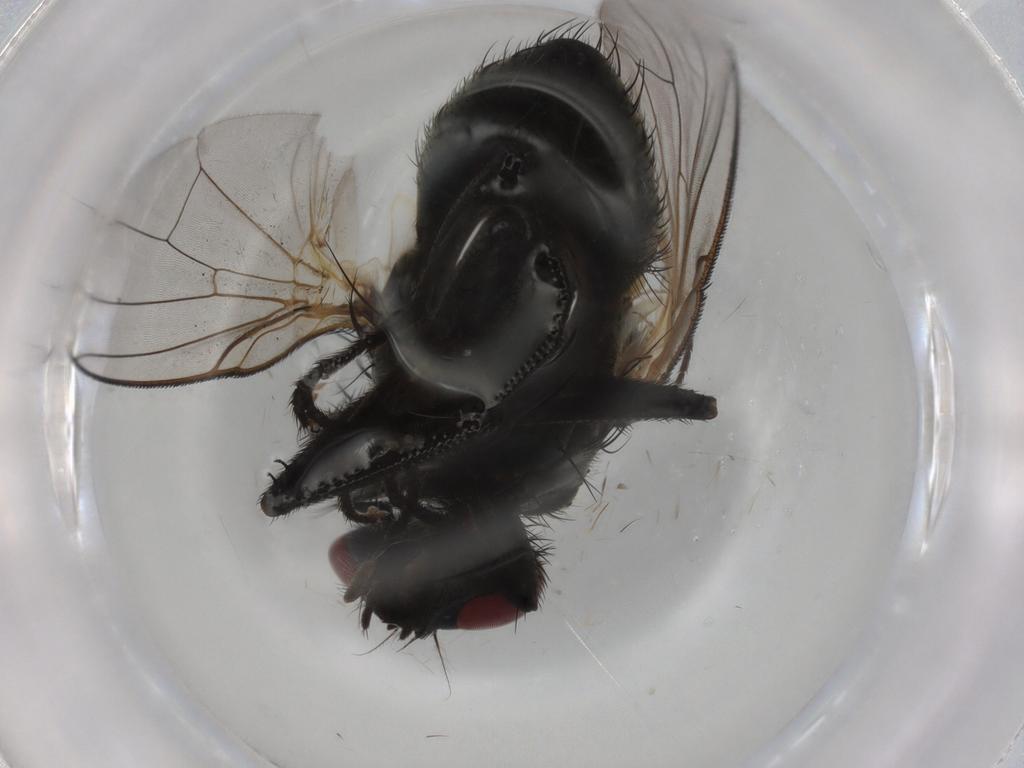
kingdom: Animalia
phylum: Arthropoda
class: Insecta
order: Diptera
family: Ceratopogonidae
